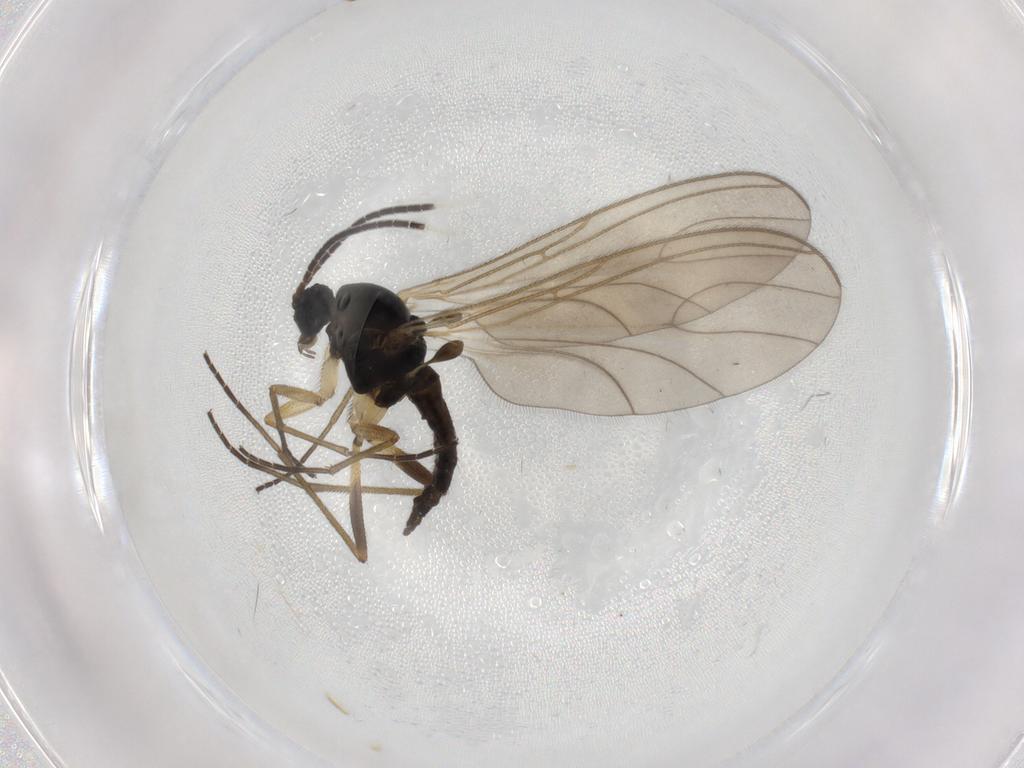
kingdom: Animalia
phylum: Arthropoda
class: Insecta
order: Diptera
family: Sciaridae
